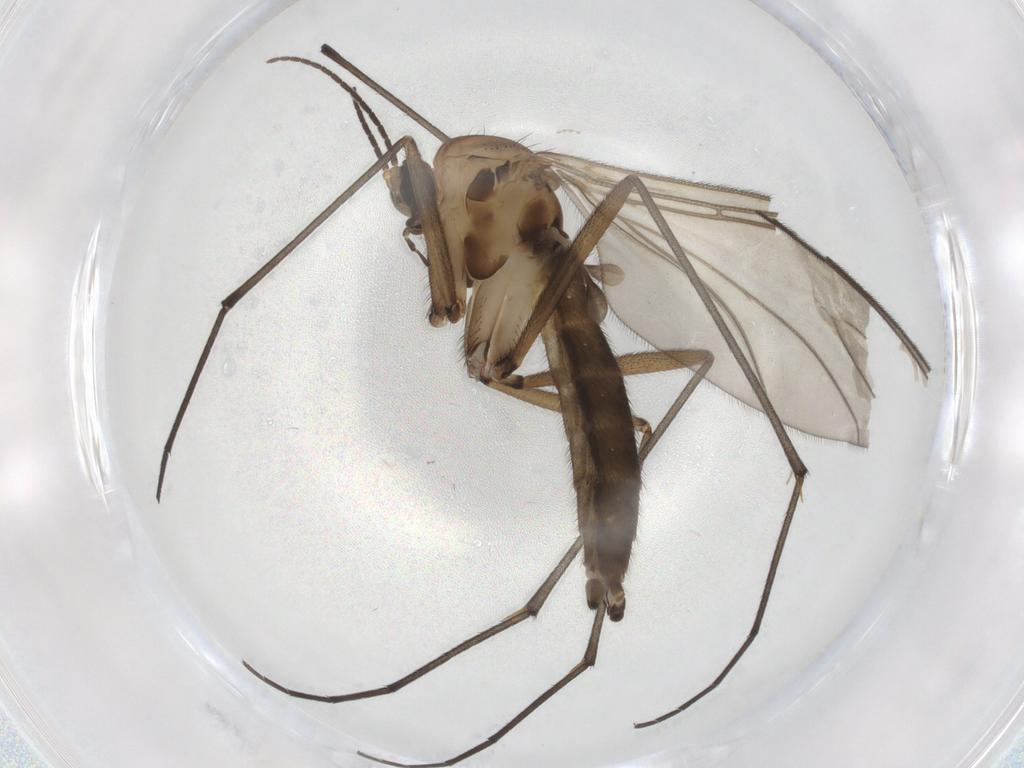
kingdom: Animalia
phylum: Arthropoda
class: Insecta
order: Diptera
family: Sciaridae
